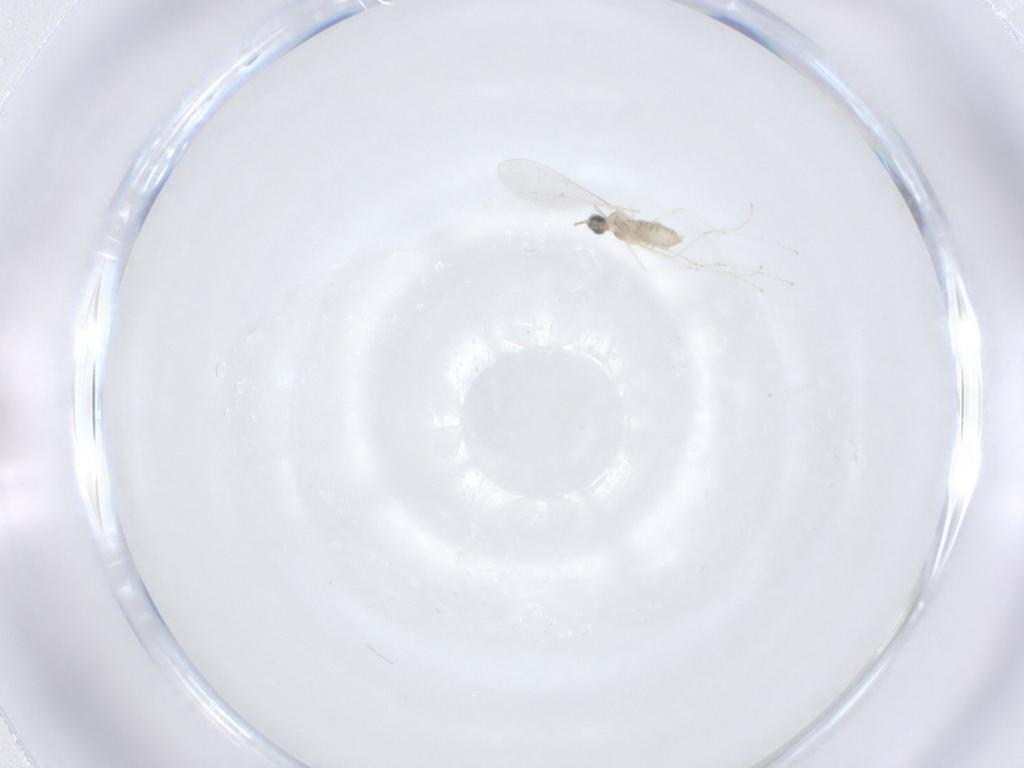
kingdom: Animalia
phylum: Arthropoda
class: Insecta
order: Diptera
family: Cecidomyiidae
